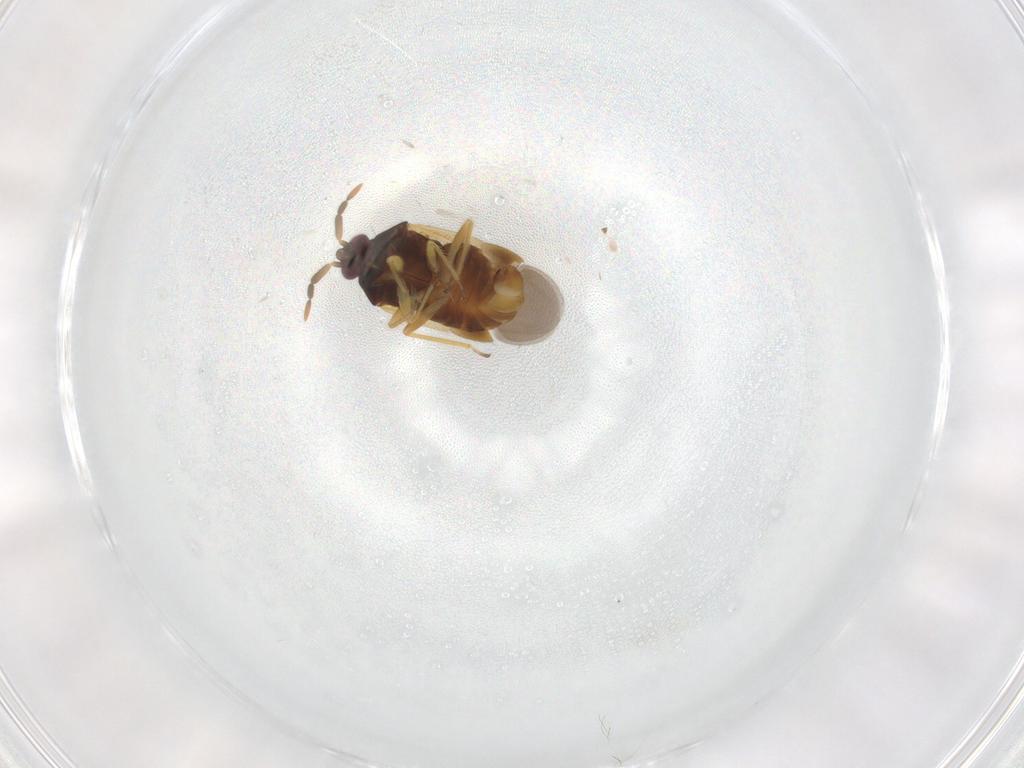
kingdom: Animalia
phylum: Arthropoda
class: Insecta
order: Hemiptera
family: Anthocoridae
